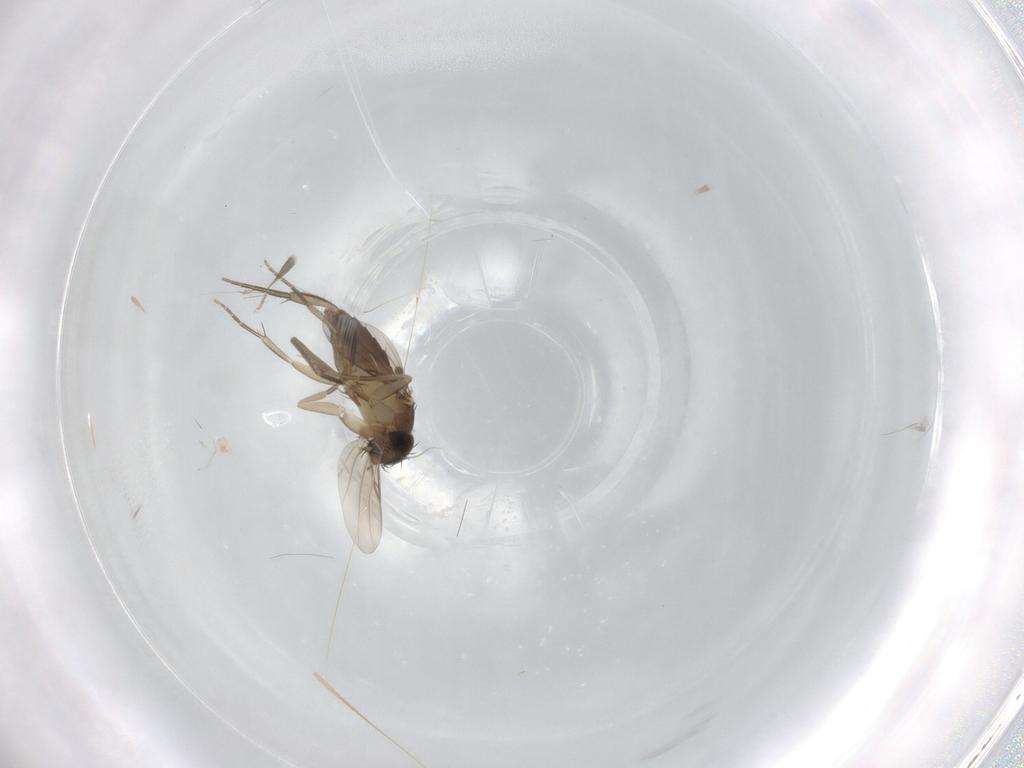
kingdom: Animalia
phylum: Arthropoda
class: Insecta
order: Diptera
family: Phoridae
